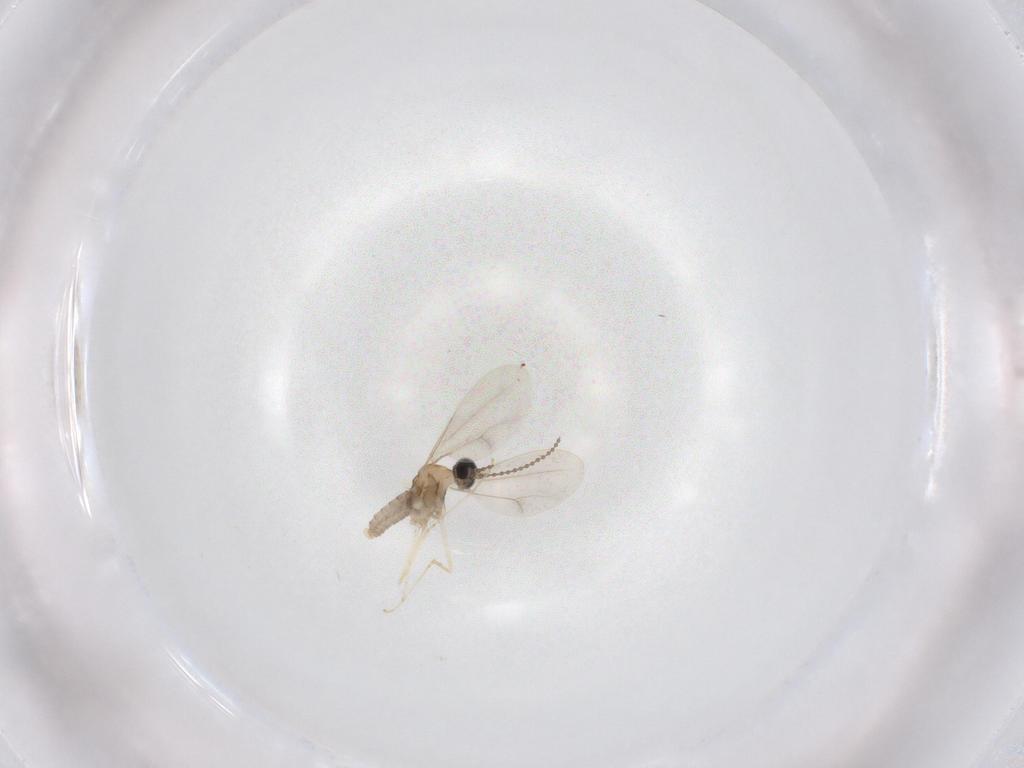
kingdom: Animalia
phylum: Arthropoda
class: Insecta
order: Diptera
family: Cecidomyiidae
